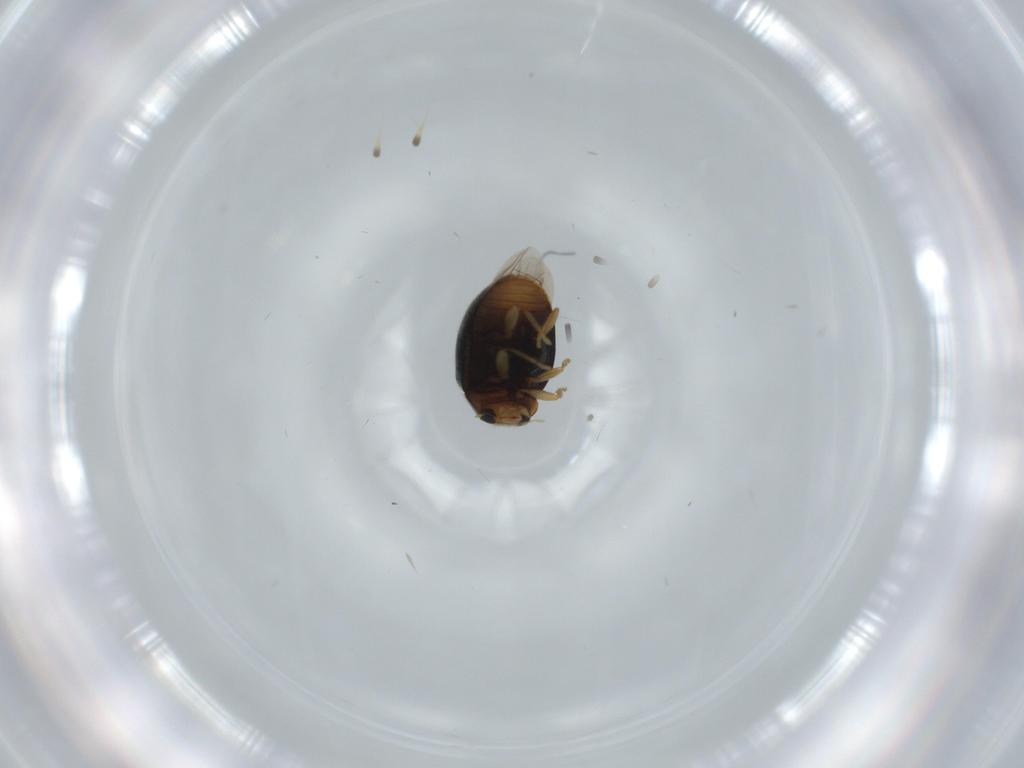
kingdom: Animalia
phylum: Arthropoda
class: Insecta
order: Coleoptera
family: Coccinellidae
